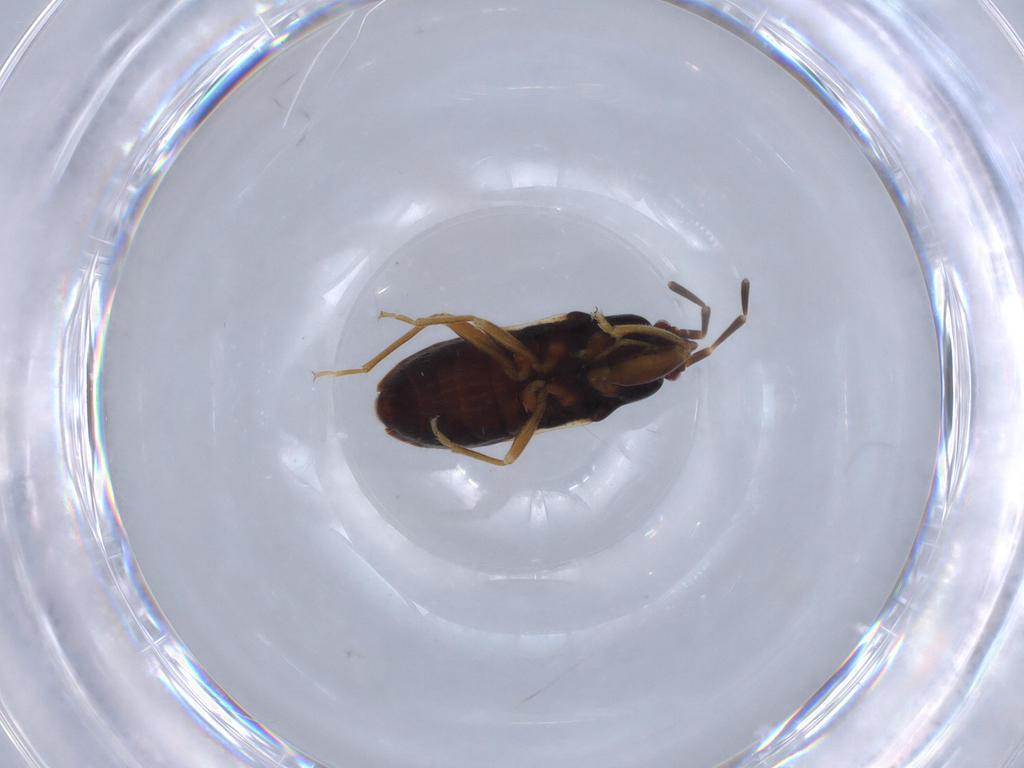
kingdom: Animalia
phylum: Arthropoda
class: Insecta
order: Hemiptera
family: Rhyparochromidae
